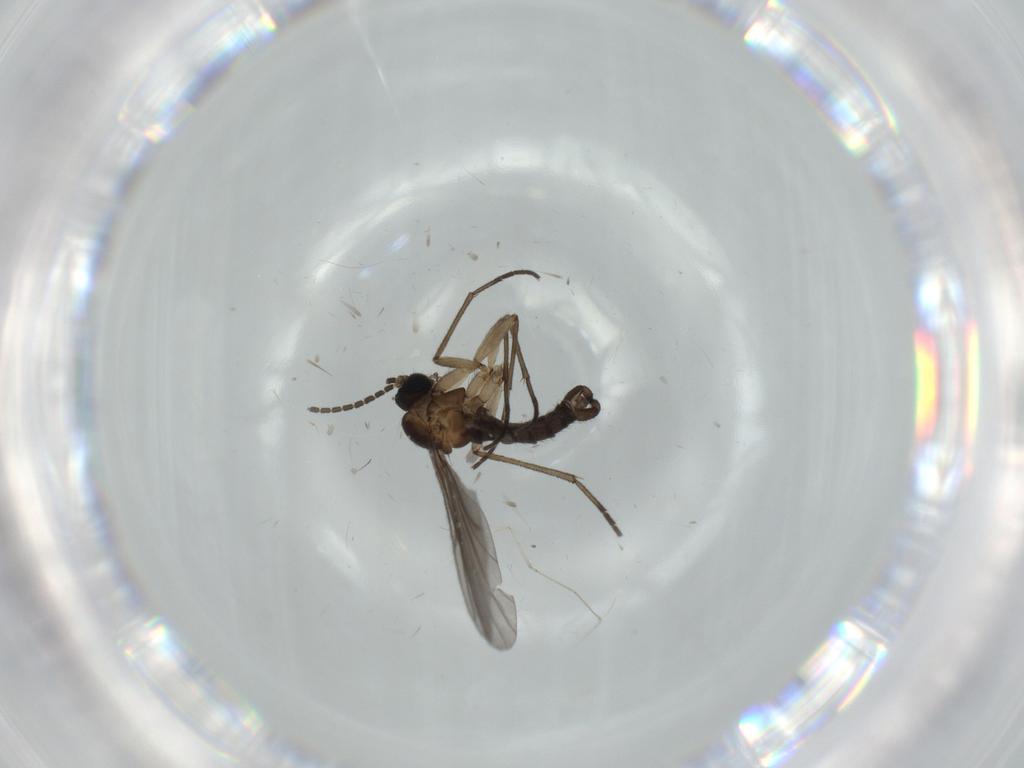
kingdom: Animalia
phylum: Arthropoda
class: Insecta
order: Diptera
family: Sciaridae
